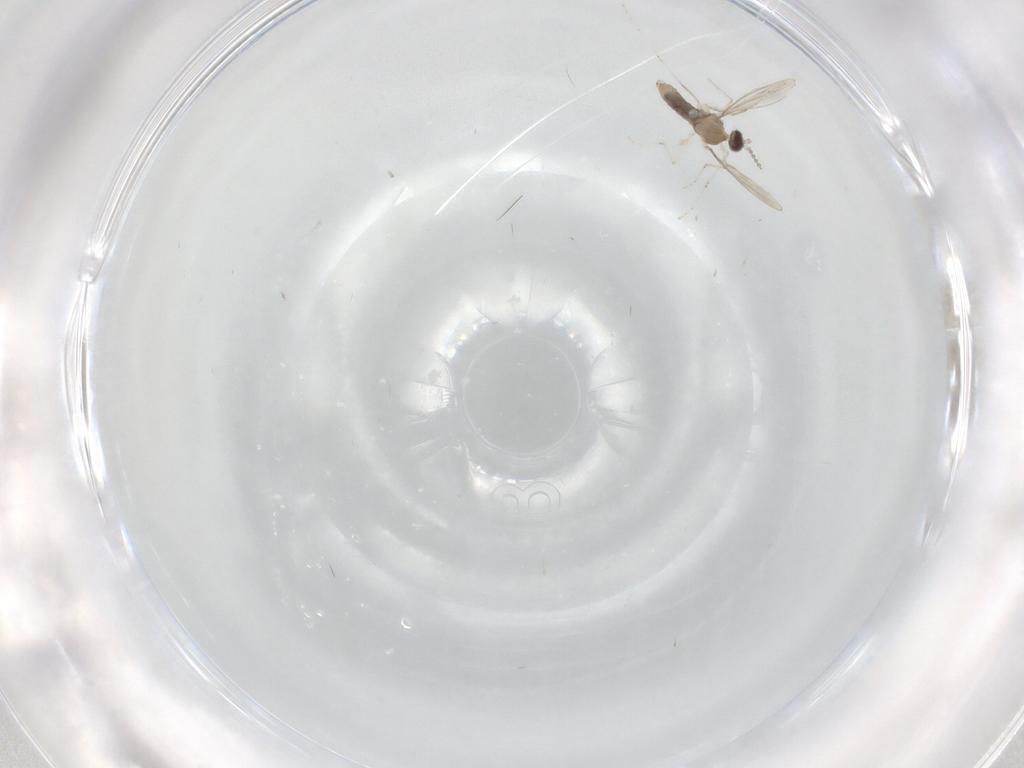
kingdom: Animalia
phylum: Arthropoda
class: Insecta
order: Diptera
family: Cecidomyiidae
